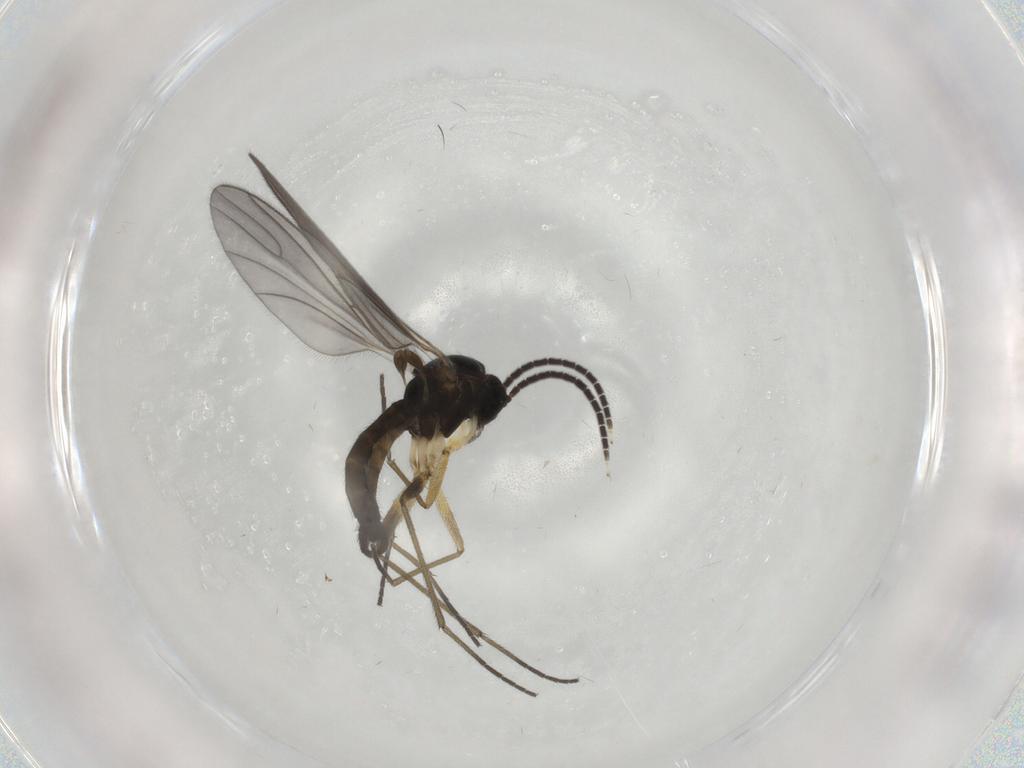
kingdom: Animalia
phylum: Arthropoda
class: Insecta
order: Diptera
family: Sciaridae
